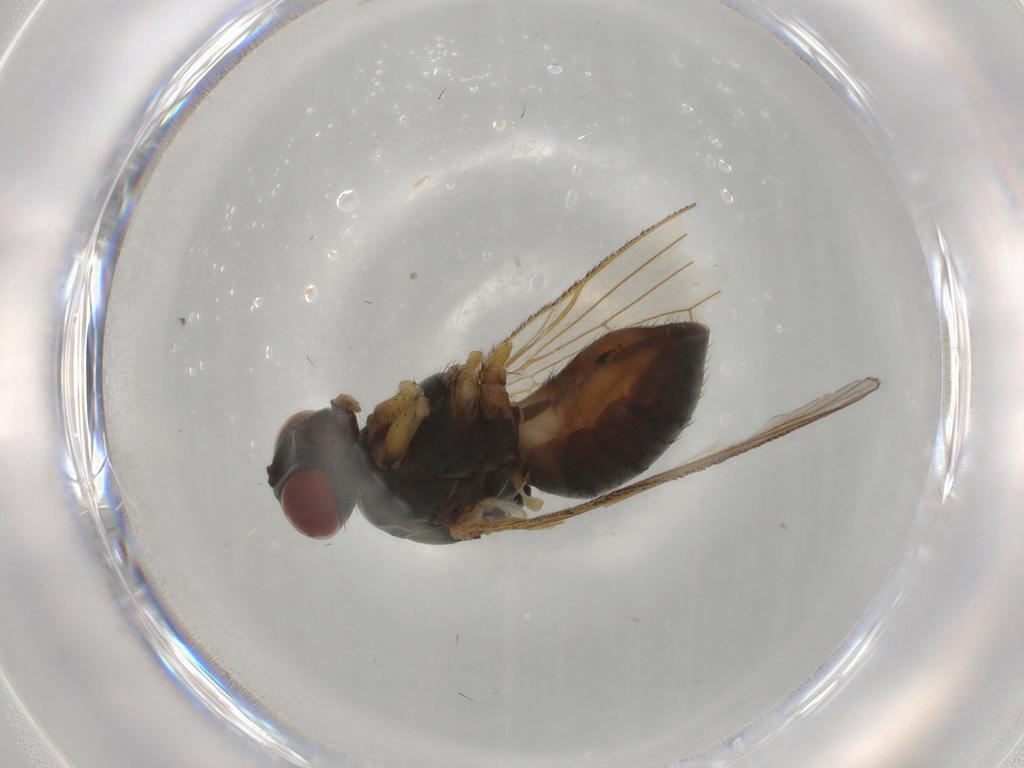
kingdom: Animalia
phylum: Arthropoda
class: Insecta
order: Diptera
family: Muscidae
